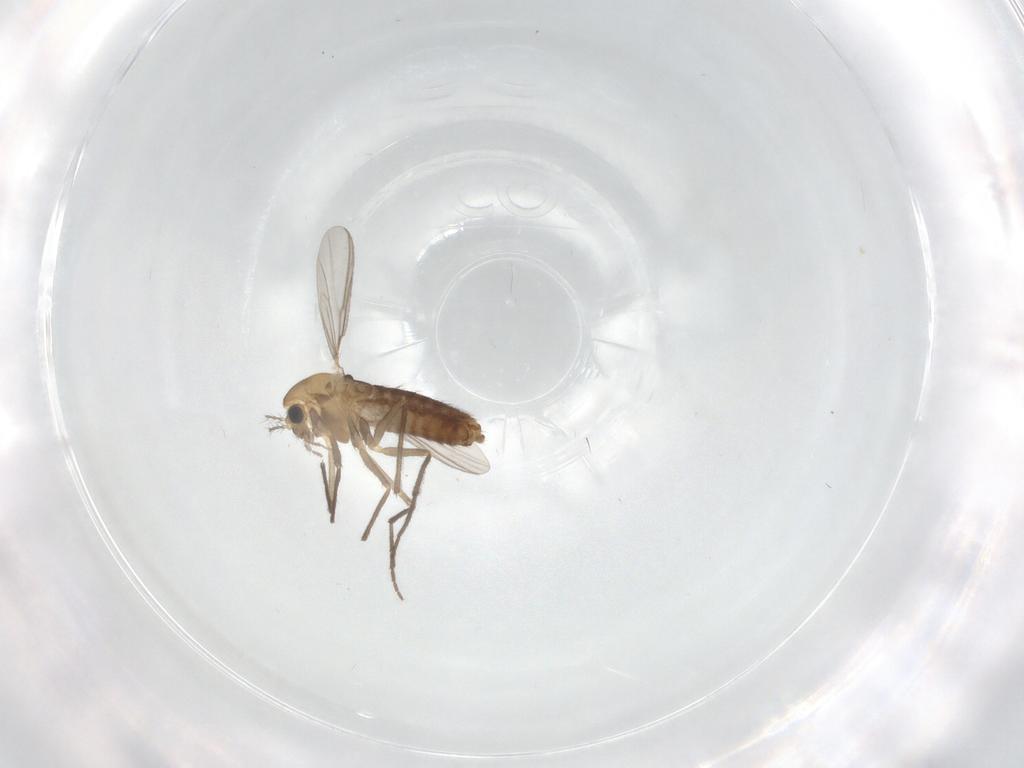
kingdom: Animalia
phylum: Arthropoda
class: Insecta
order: Diptera
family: Chironomidae
